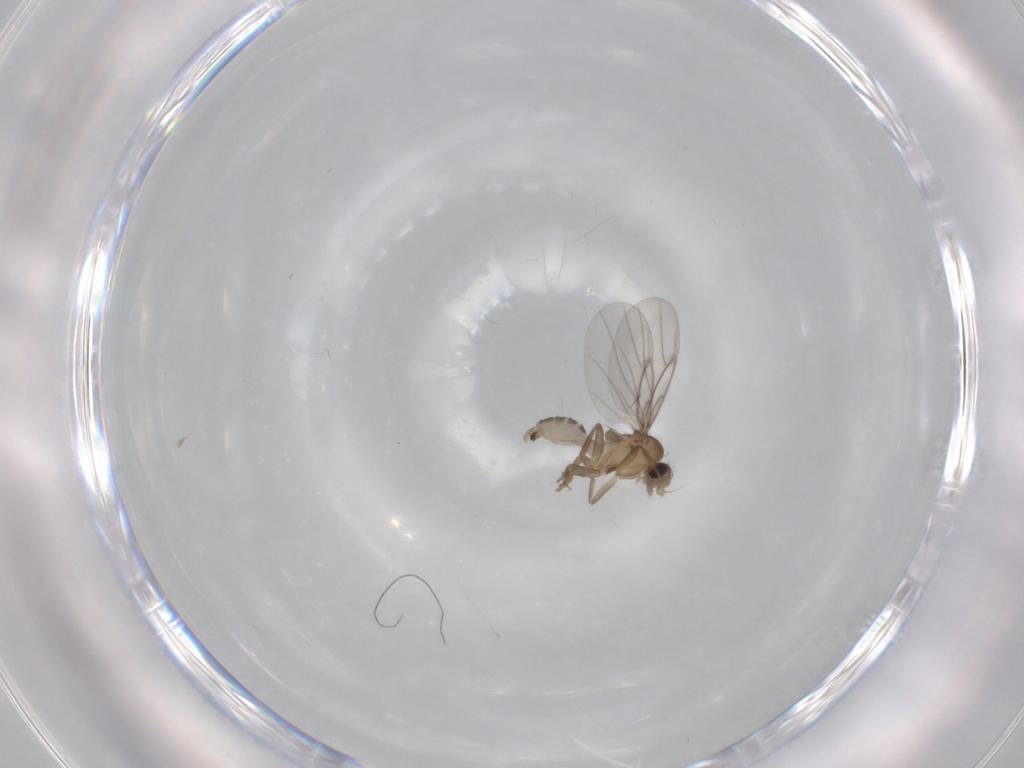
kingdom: Animalia
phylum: Arthropoda
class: Insecta
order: Diptera
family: Cecidomyiidae
